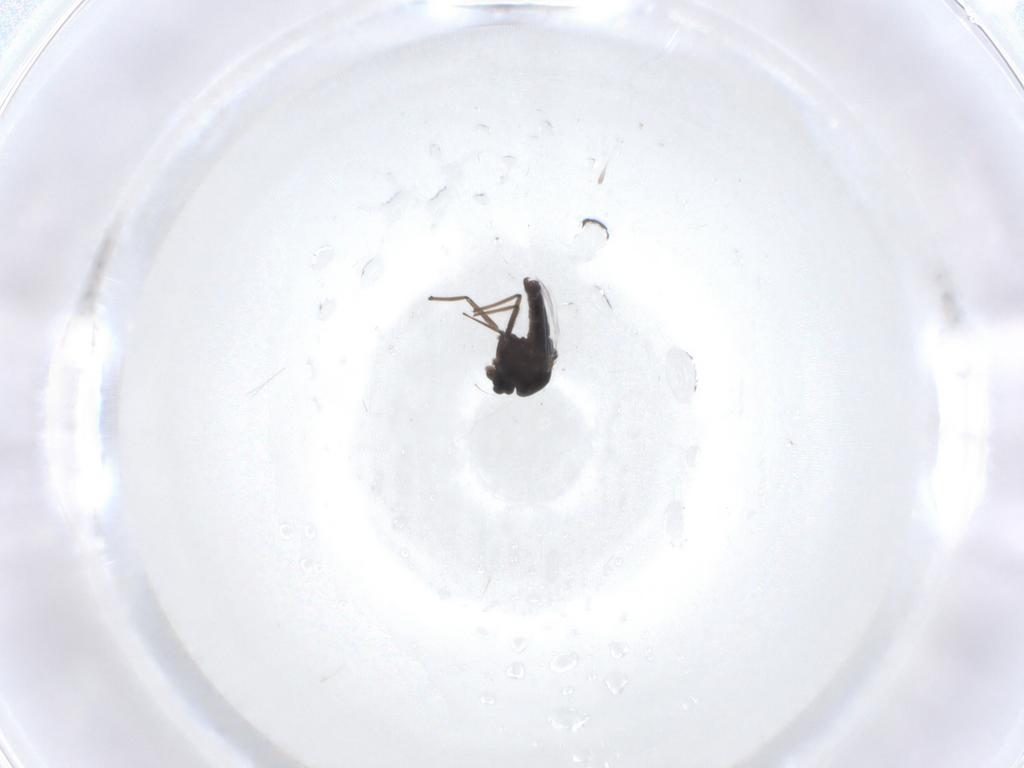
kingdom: Animalia
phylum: Arthropoda
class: Insecta
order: Diptera
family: Chironomidae
